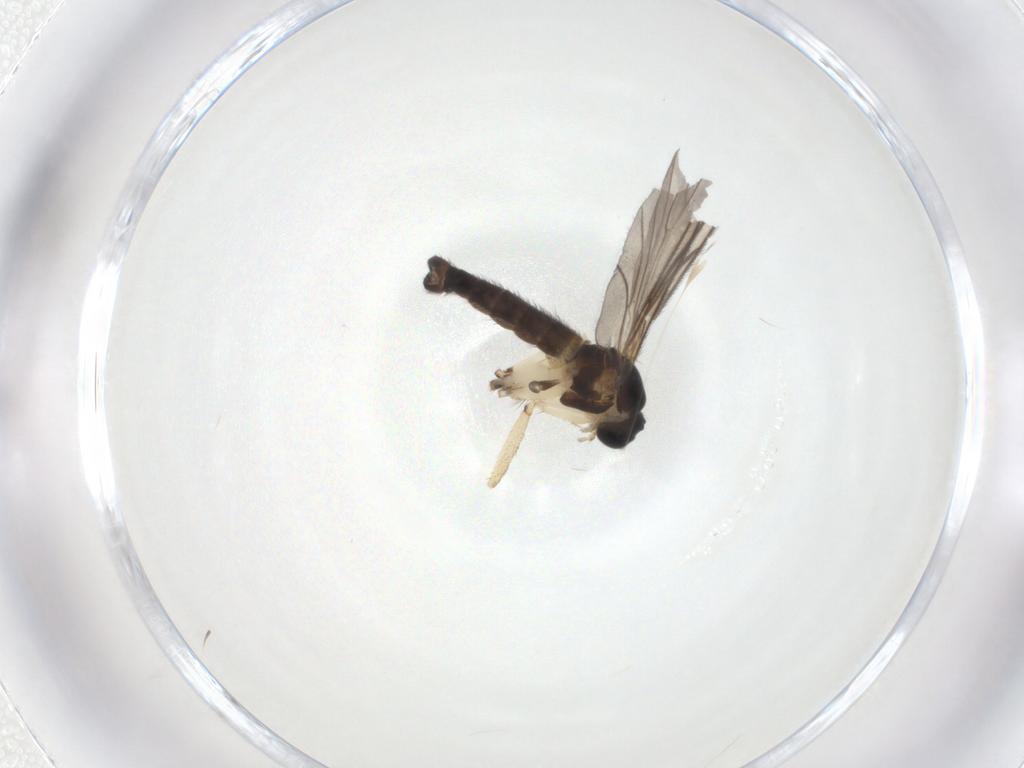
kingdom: Animalia
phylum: Arthropoda
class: Insecta
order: Diptera
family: Sciaridae
